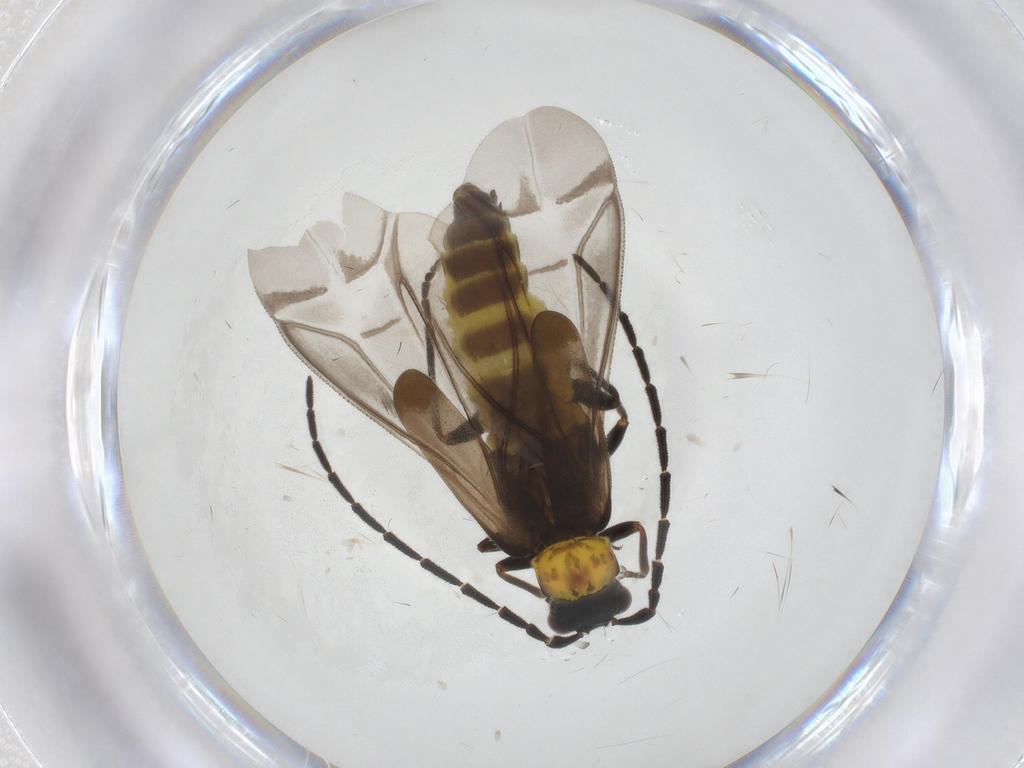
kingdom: Animalia
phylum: Arthropoda
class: Insecta
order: Coleoptera
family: Cantharidae
